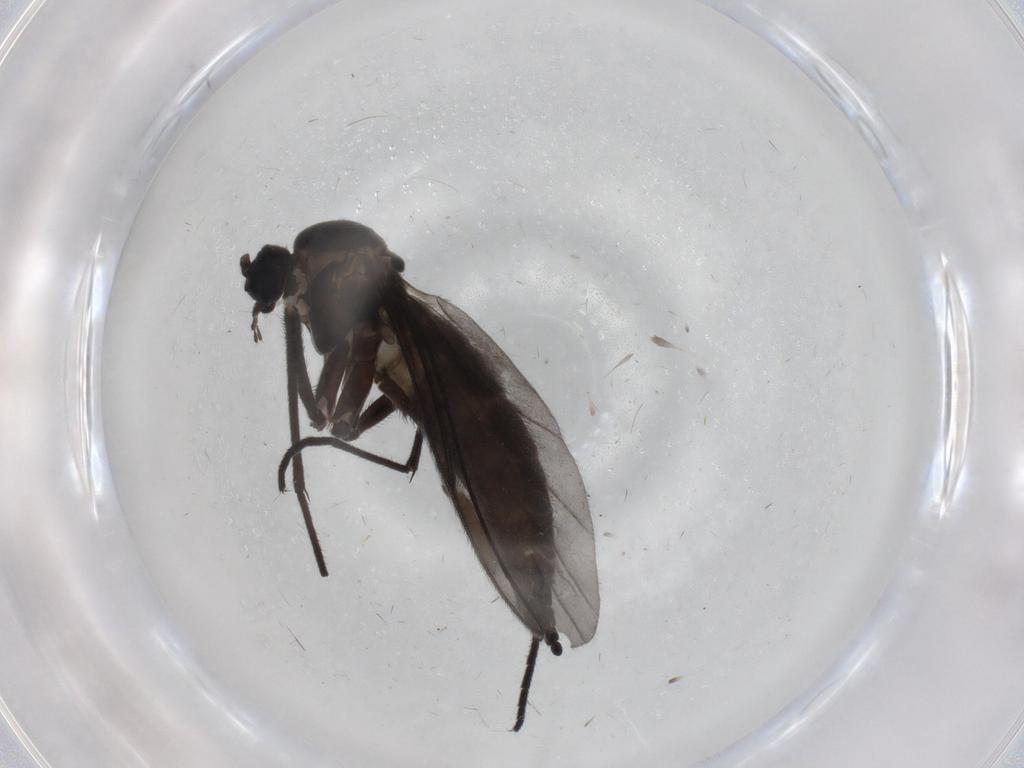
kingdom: Animalia
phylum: Arthropoda
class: Insecta
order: Diptera
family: Sciaridae
